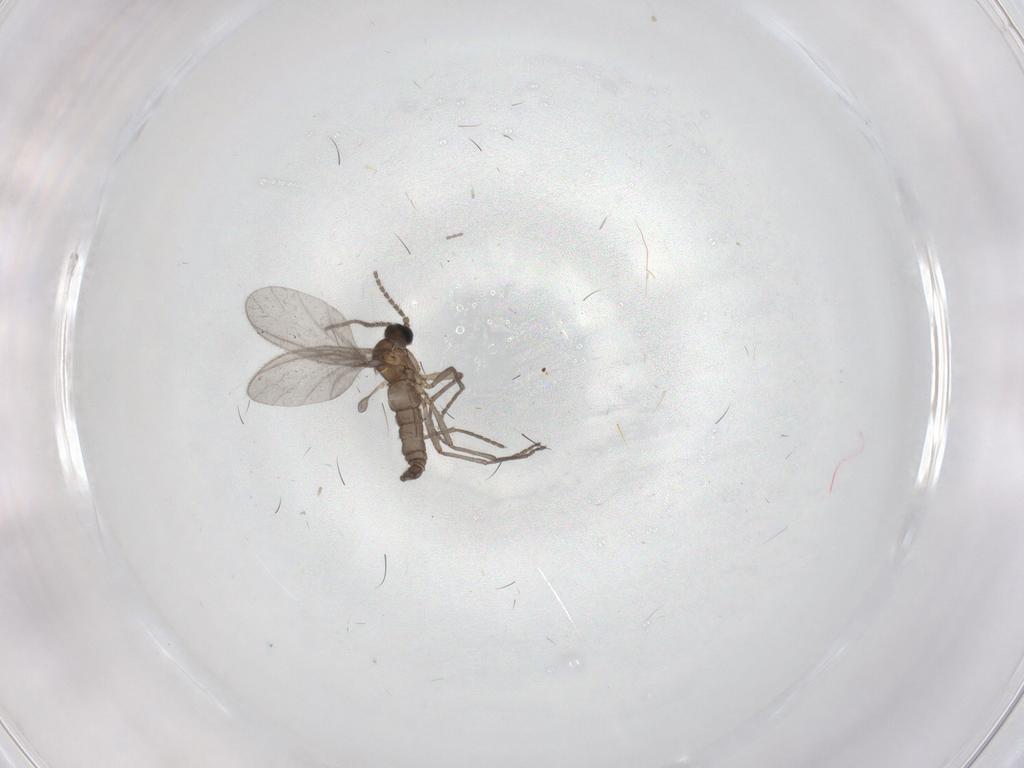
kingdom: Animalia
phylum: Arthropoda
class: Insecta
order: Diptera
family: Sciaridae
